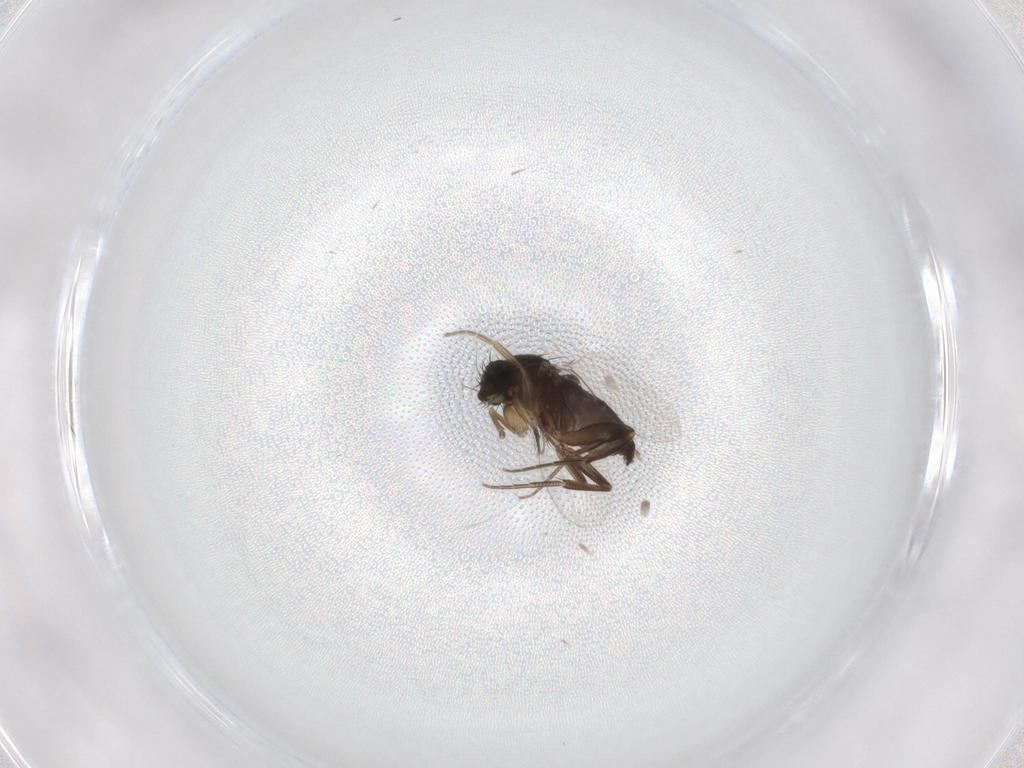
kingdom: Animalia
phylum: Arthropoda
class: Insecta
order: Diptera
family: Phoridae
